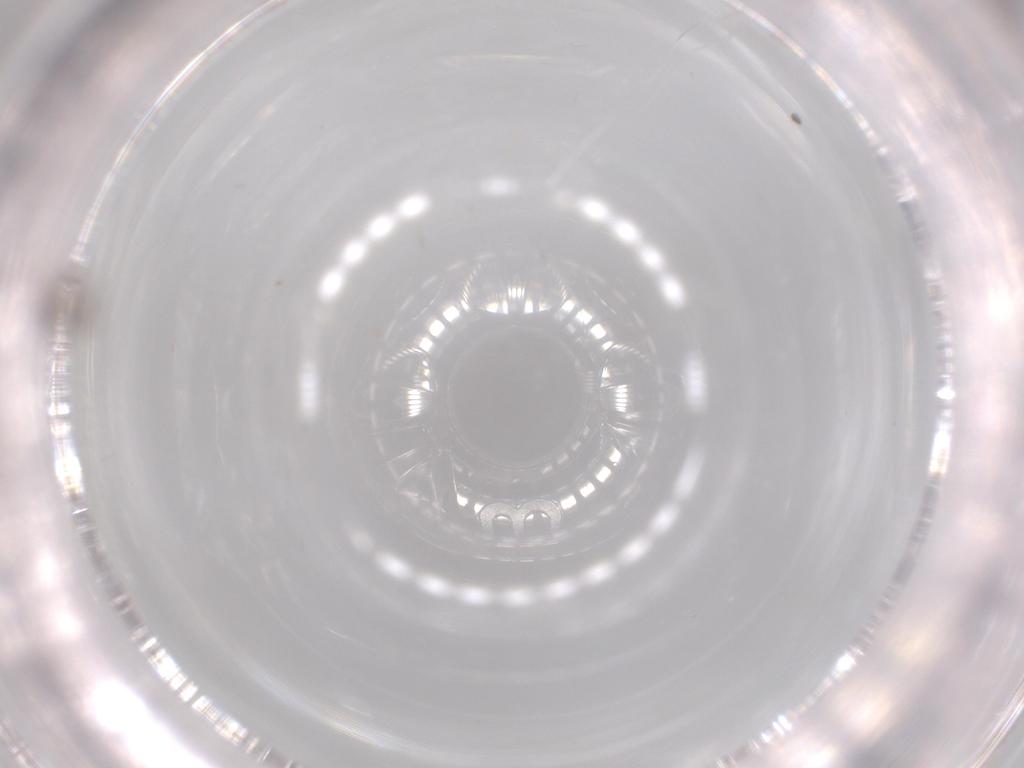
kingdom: Animalia
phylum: Arthropoda
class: Insecta
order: Hymenoptera
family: Platygastridae
